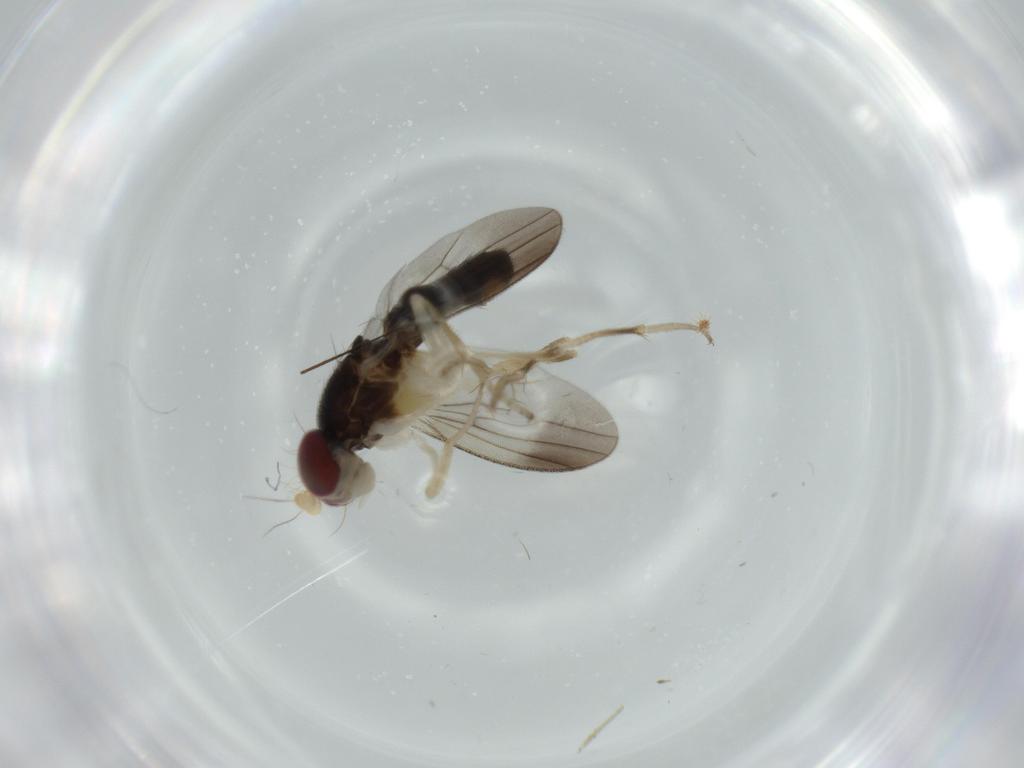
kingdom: Animalia
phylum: Arthropoda
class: Insecta
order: Diptera
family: Clusiidae
